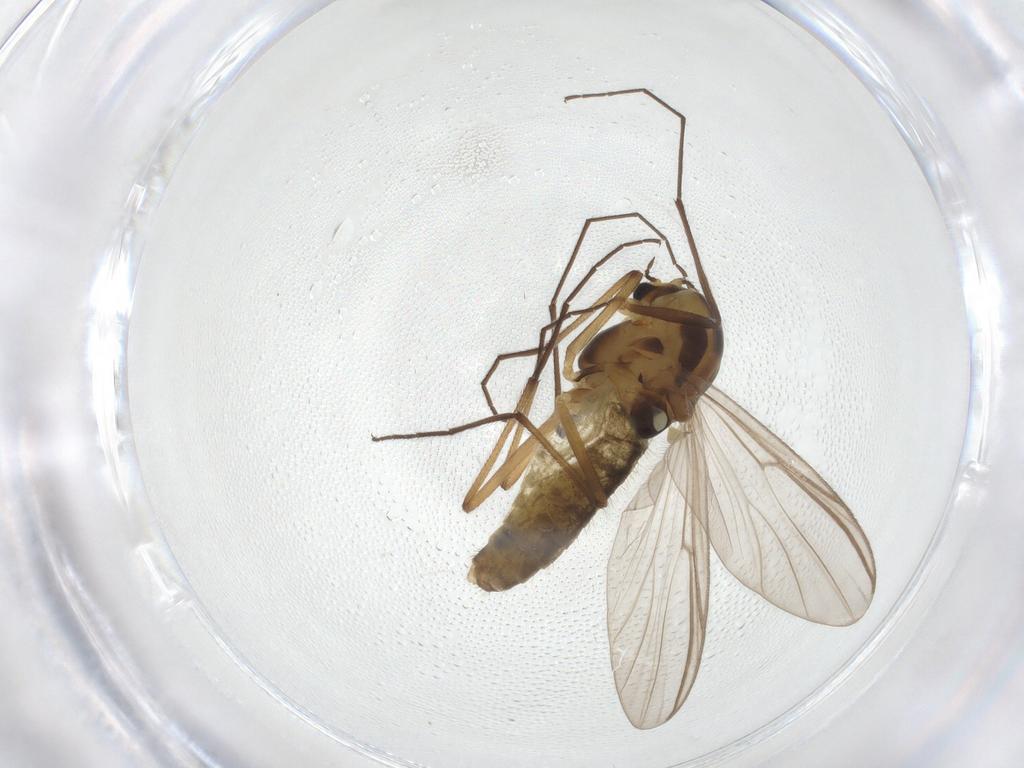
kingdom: Animalia
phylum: Arthropoda
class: Insecta
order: Diptera
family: Chironomidae
